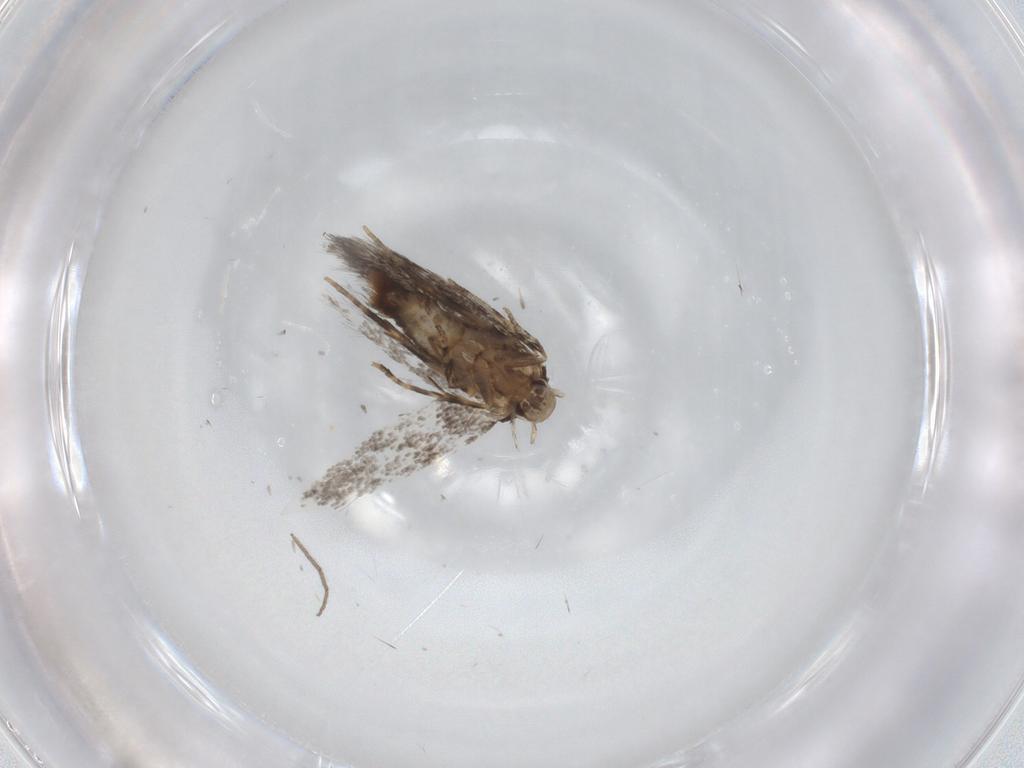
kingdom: Animalia
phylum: Arthropoda
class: Insecta
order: Lepidoptera
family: Elachistidae
